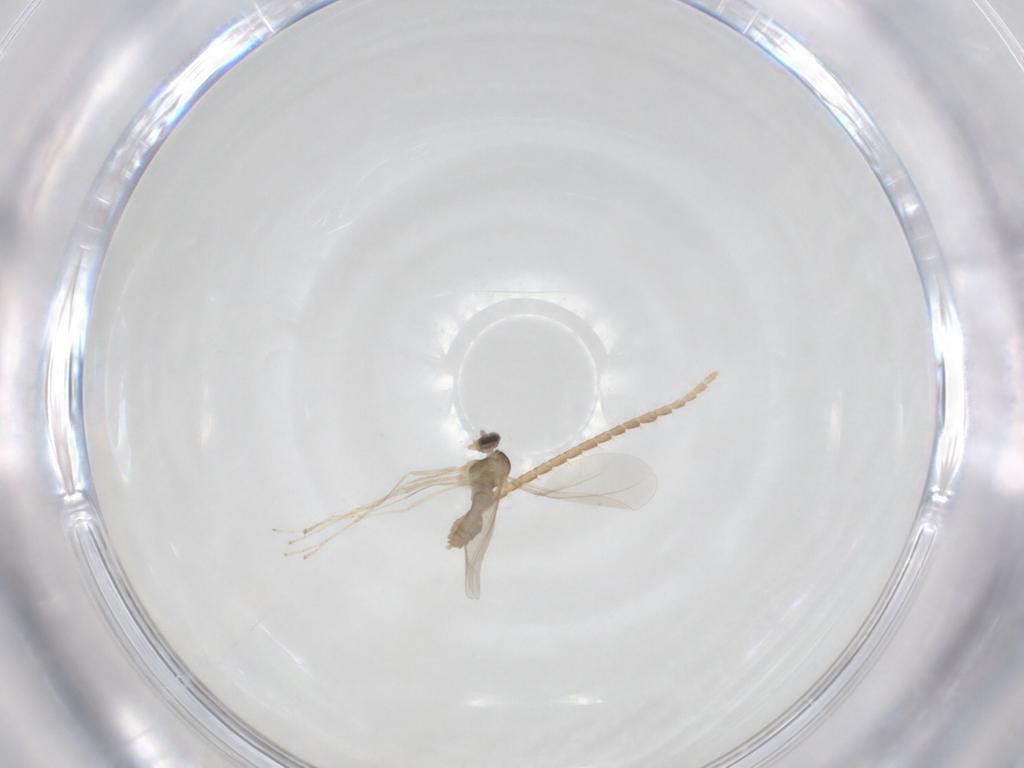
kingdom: Animalia
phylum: Arthropoda
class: Insecta
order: Diptera
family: Cecidomyiidae
